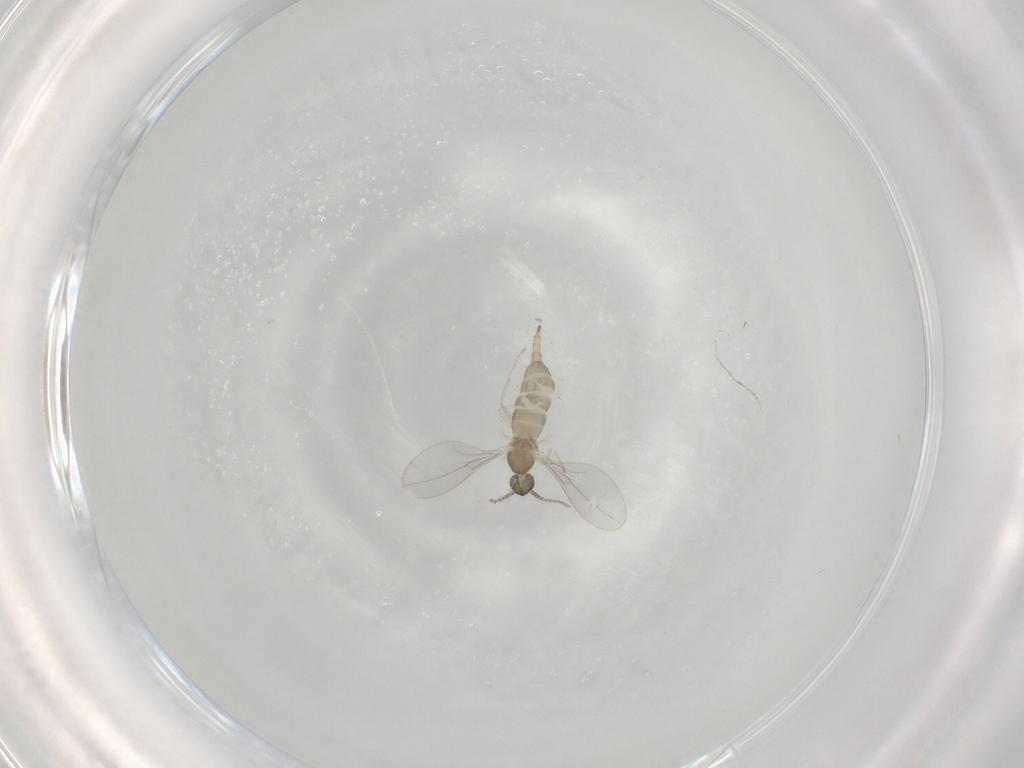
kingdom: Animalia
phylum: Arthropoda
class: Insecta
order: Diptera
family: Cecidomyiidae
